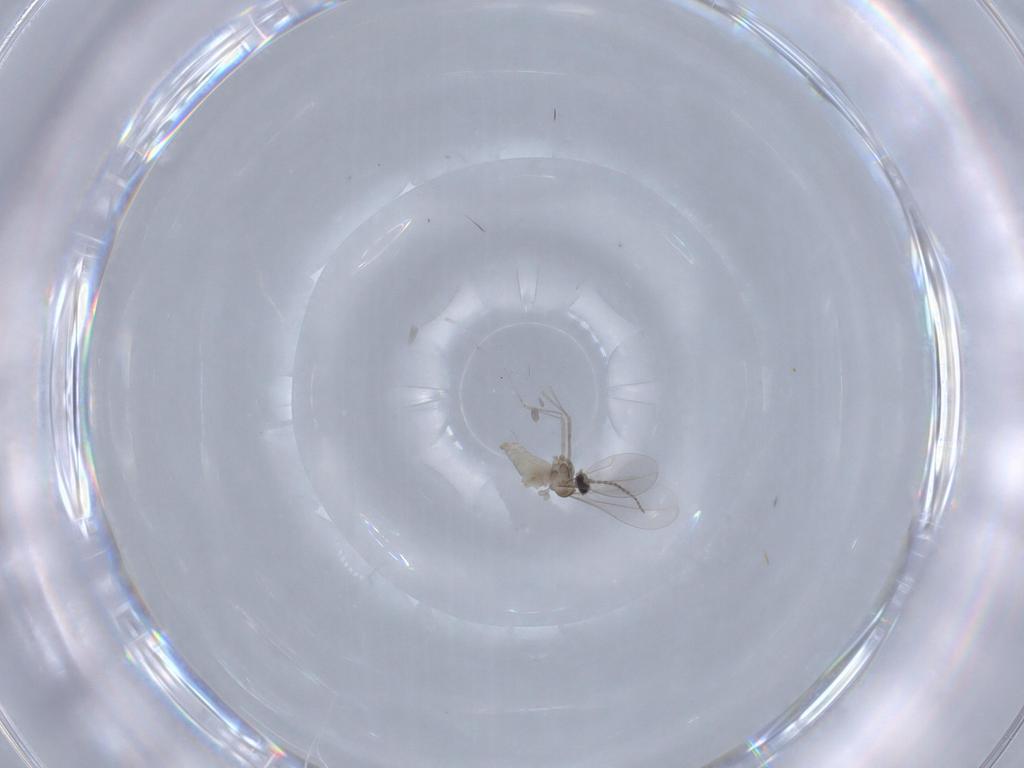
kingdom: Animalia
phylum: Arthropoda
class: Insecta
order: Diptera
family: Cecidomyiidae
